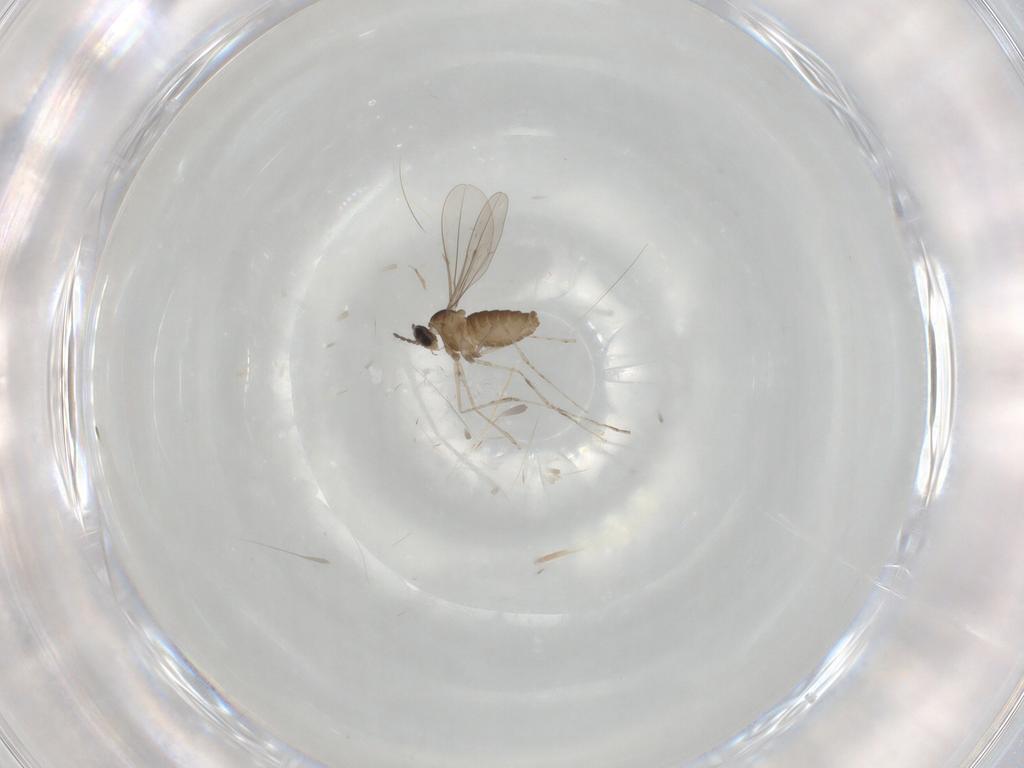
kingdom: Animalia
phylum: Arthropoda
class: Insecta
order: Diptera
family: Cecidomyiidae
